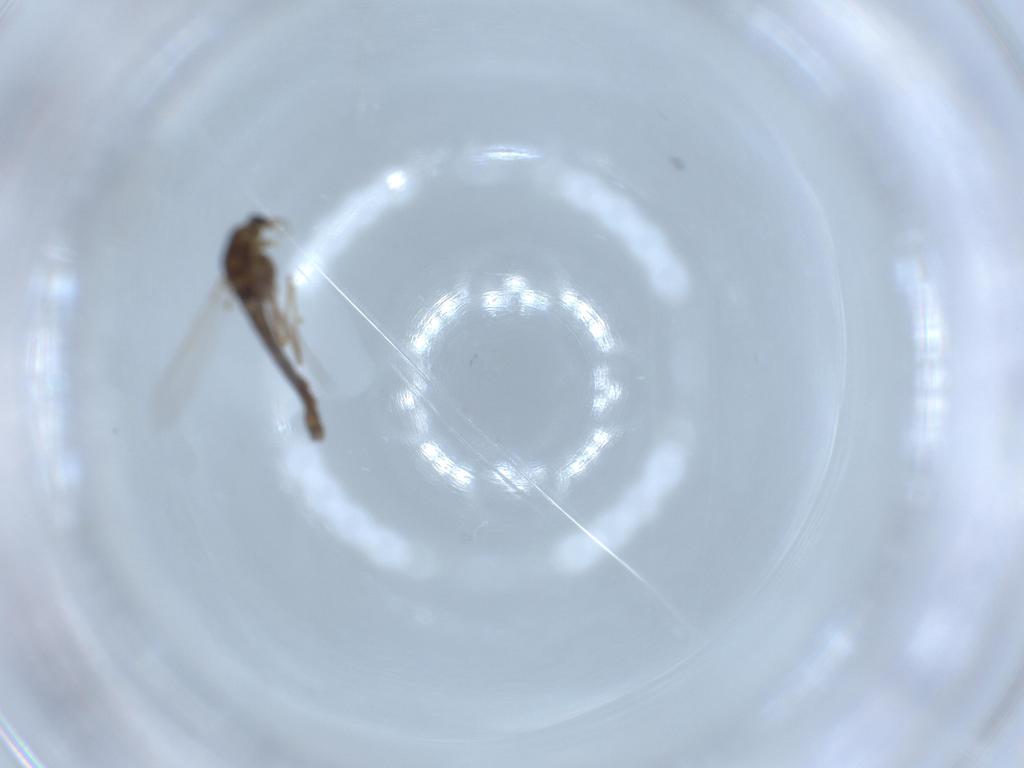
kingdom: Animalia
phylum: Arthropoda
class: Insecta
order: Diptera
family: Chironomidae
